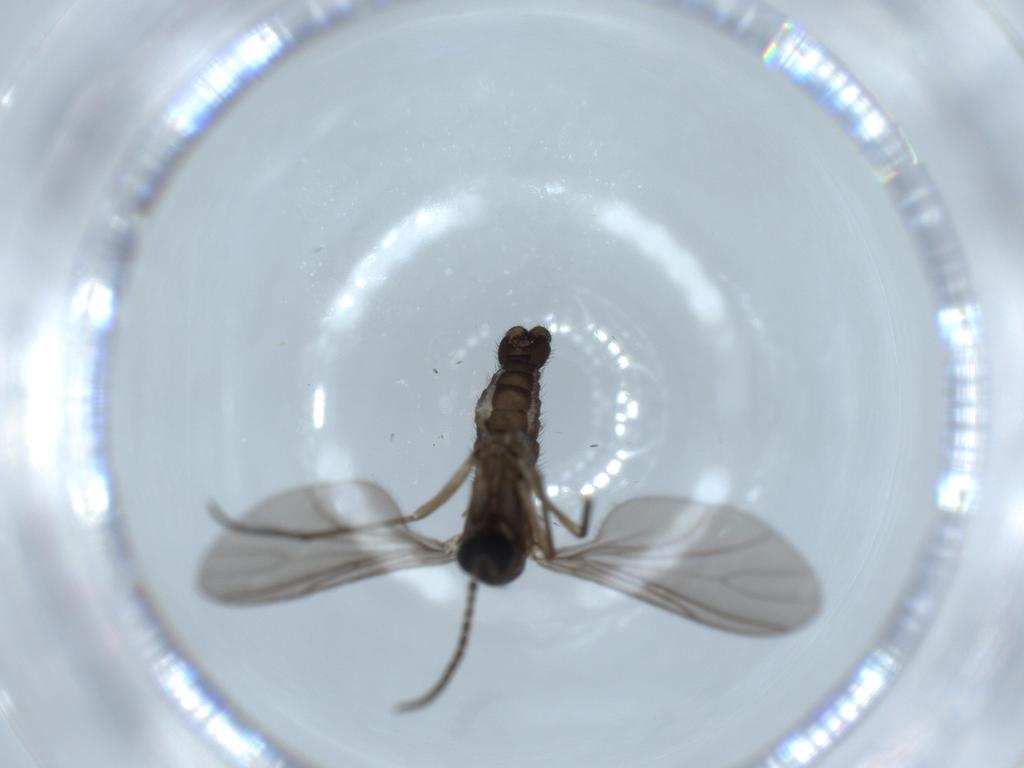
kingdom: Animalia
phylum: Arthropoda
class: Insecta
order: Diptera
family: Sciaridae
